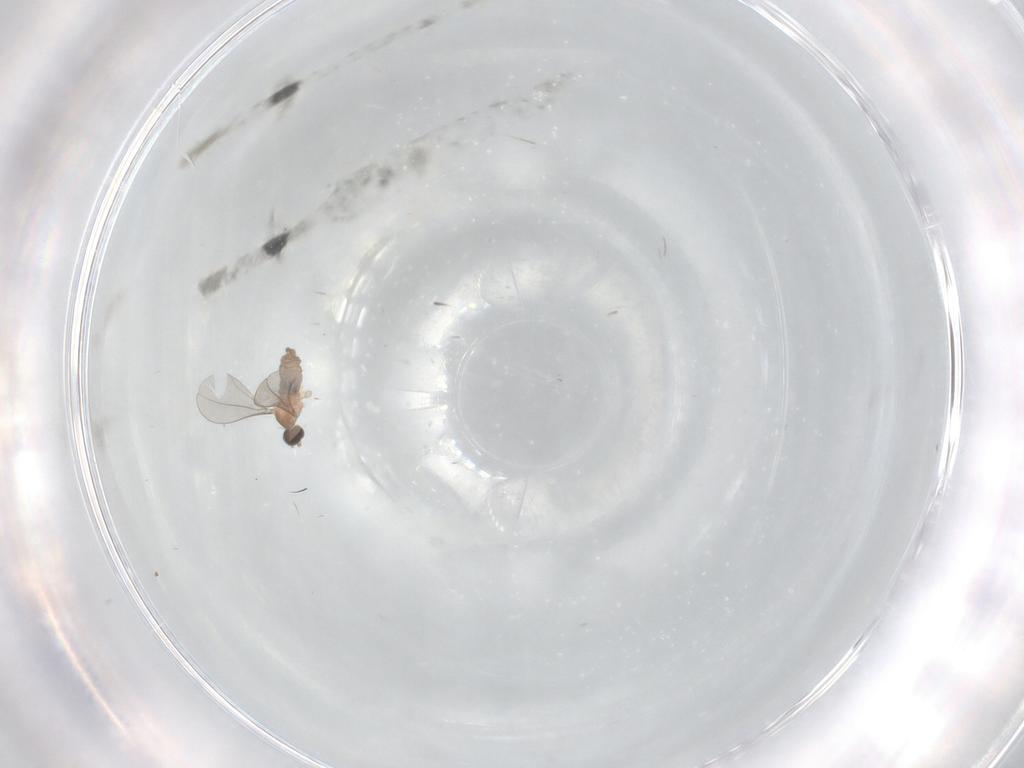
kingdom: Animalia
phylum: Arthropoda
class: Insecta
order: Diptera
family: Cecidomyiidae
